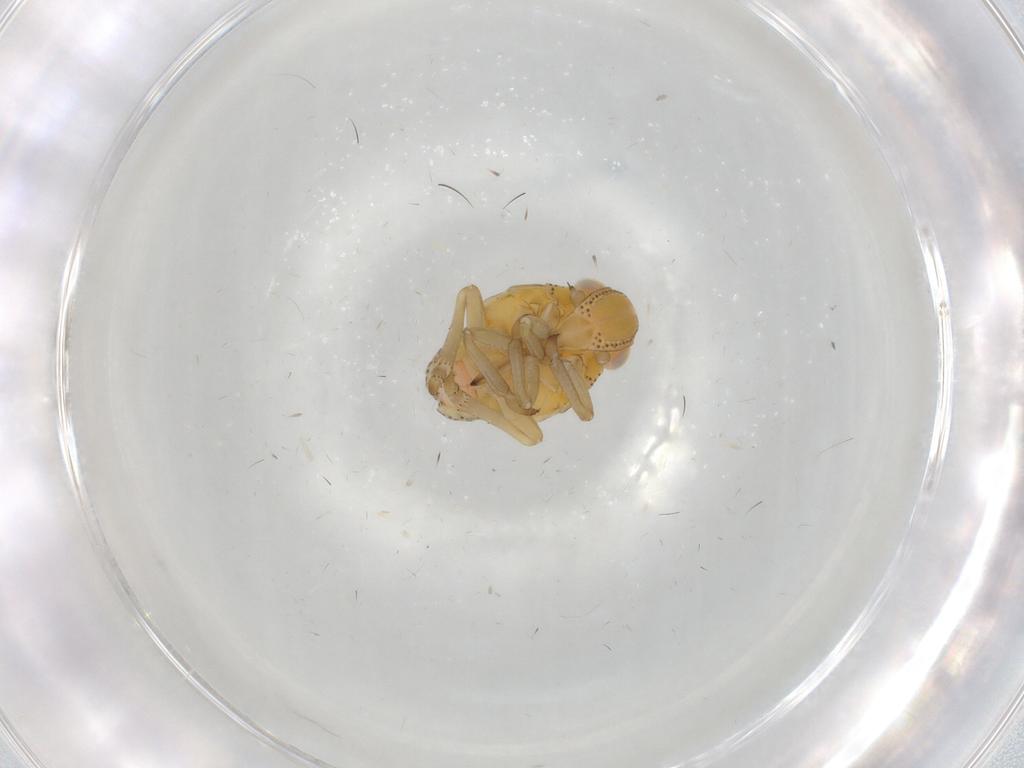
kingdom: Animalia
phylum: Arthropoda
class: Insecta
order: Hemiptera
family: Tropiduchidae
